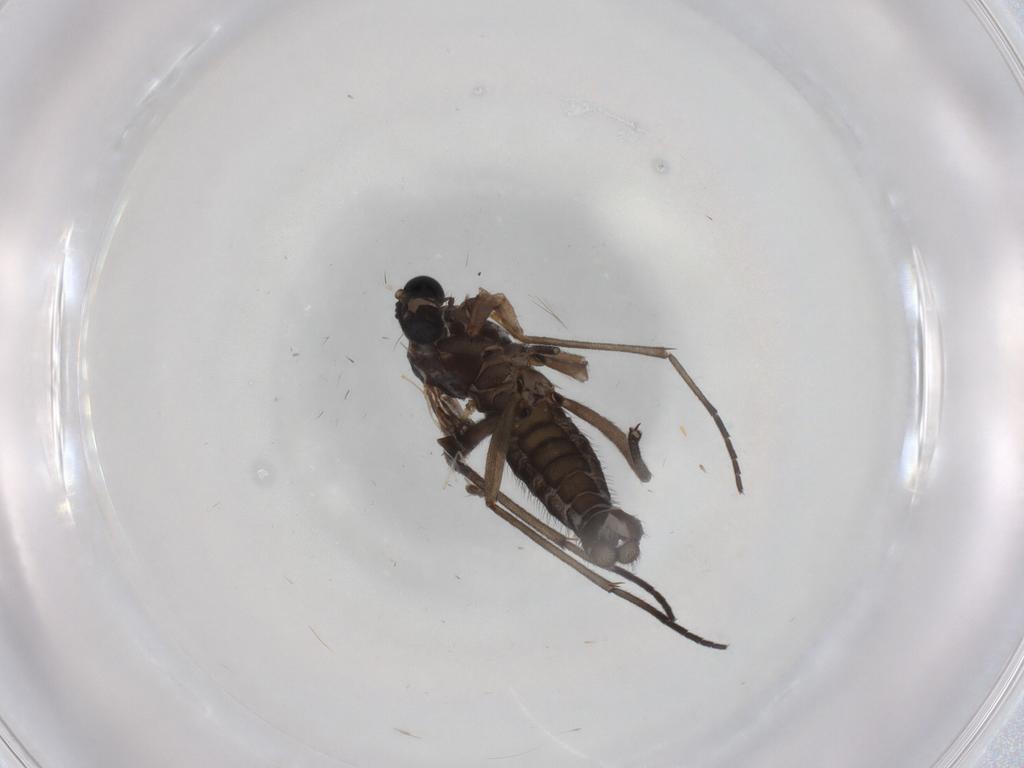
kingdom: Animalia
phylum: Arthropoda
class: Insecta
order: Diptera
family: Sciaridae
